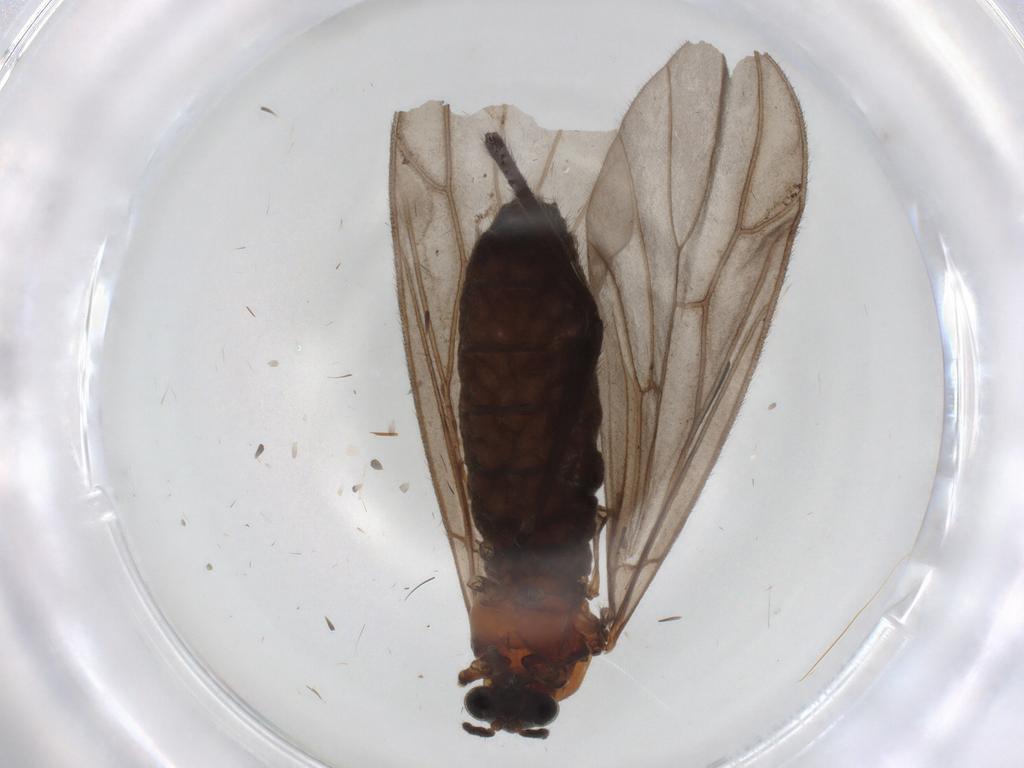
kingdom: Animalia
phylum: Arthropoda
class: Insecta
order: Diptera
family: Bibionidae
